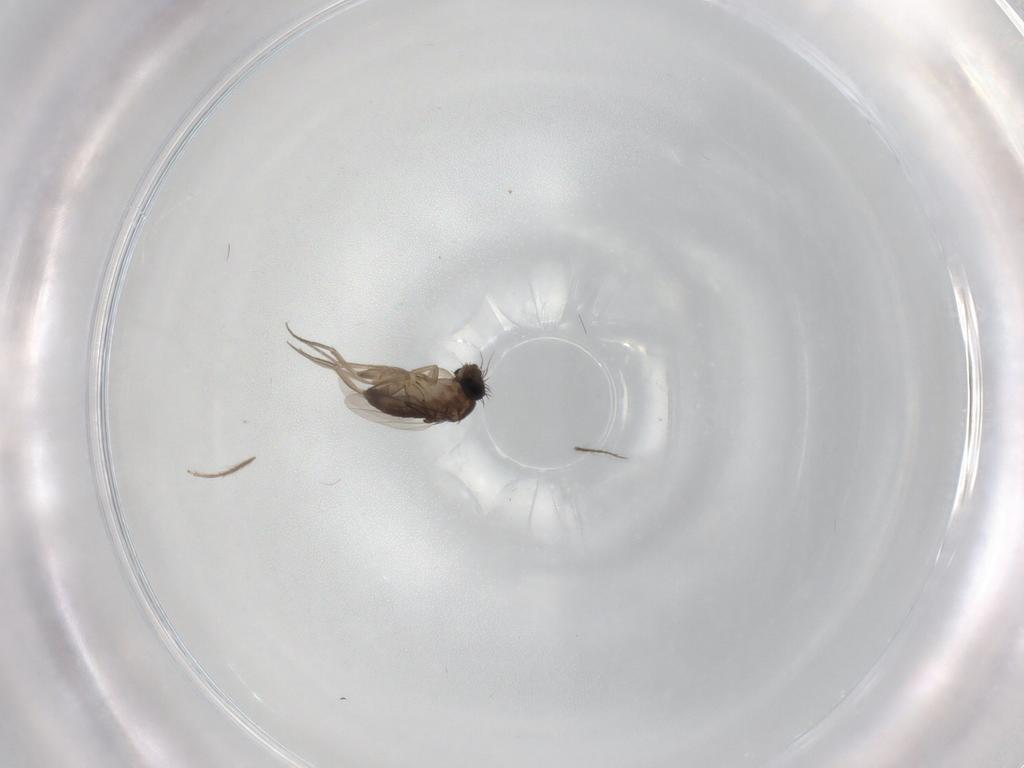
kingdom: Animalia
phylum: Arthropoda
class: Insecta
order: Diptera
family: Phoridae
